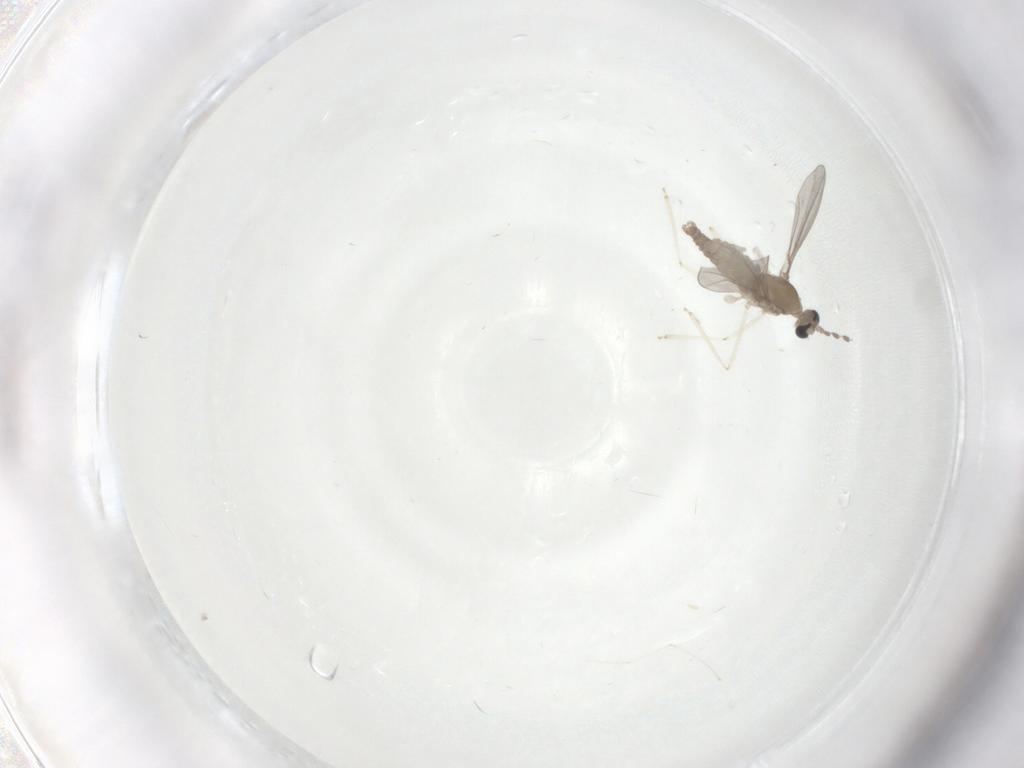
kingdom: Animalia
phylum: Arthropoda
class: Insecta
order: Diptera
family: Cecidomyiidae
